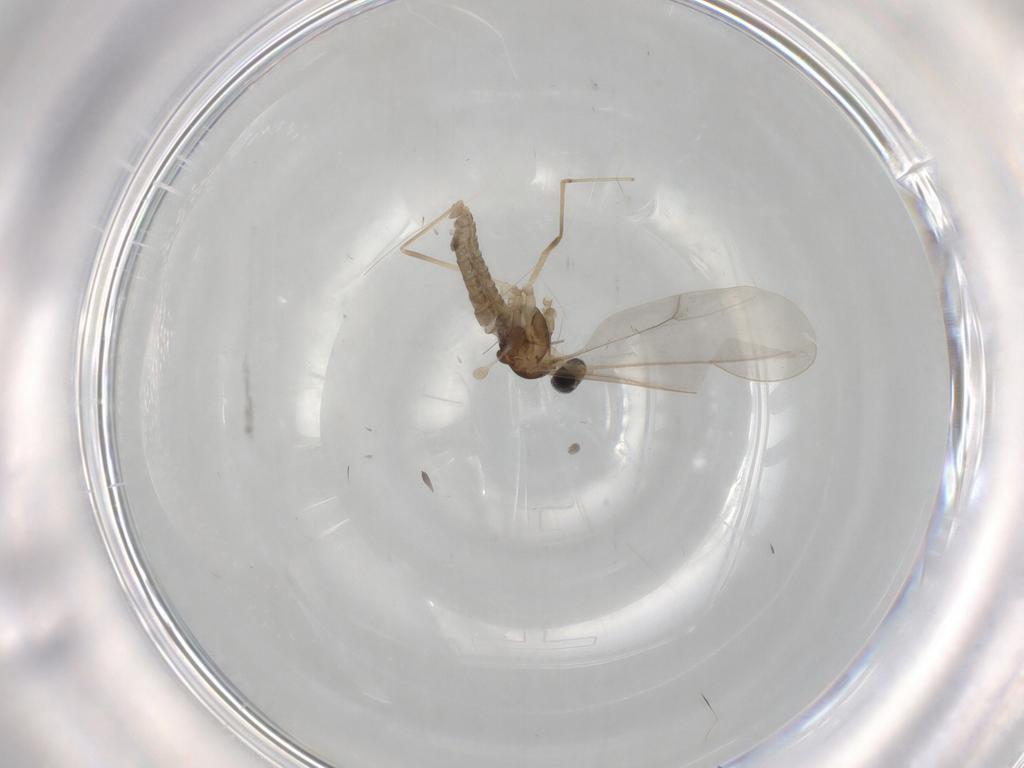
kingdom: Animalia
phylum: Arthropoda
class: Insecta
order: Diptera
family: Cecidomyiidae
